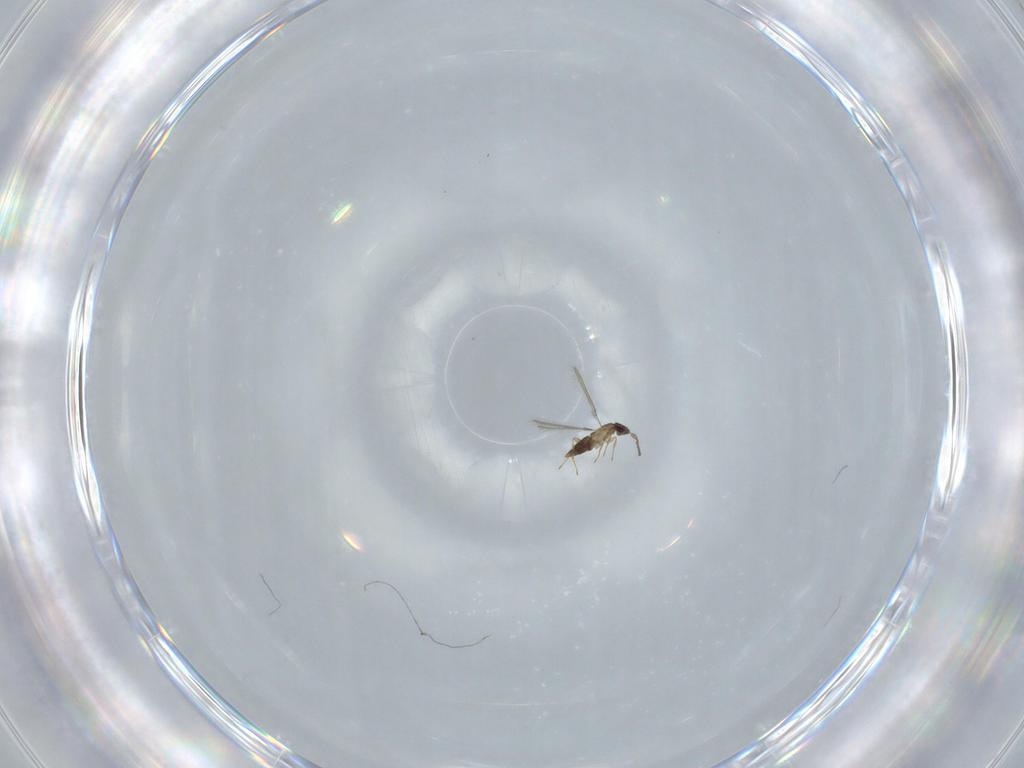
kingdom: Animalia
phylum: Arthropoda
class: Insecta
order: Hymenoptera
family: Mymaridae
